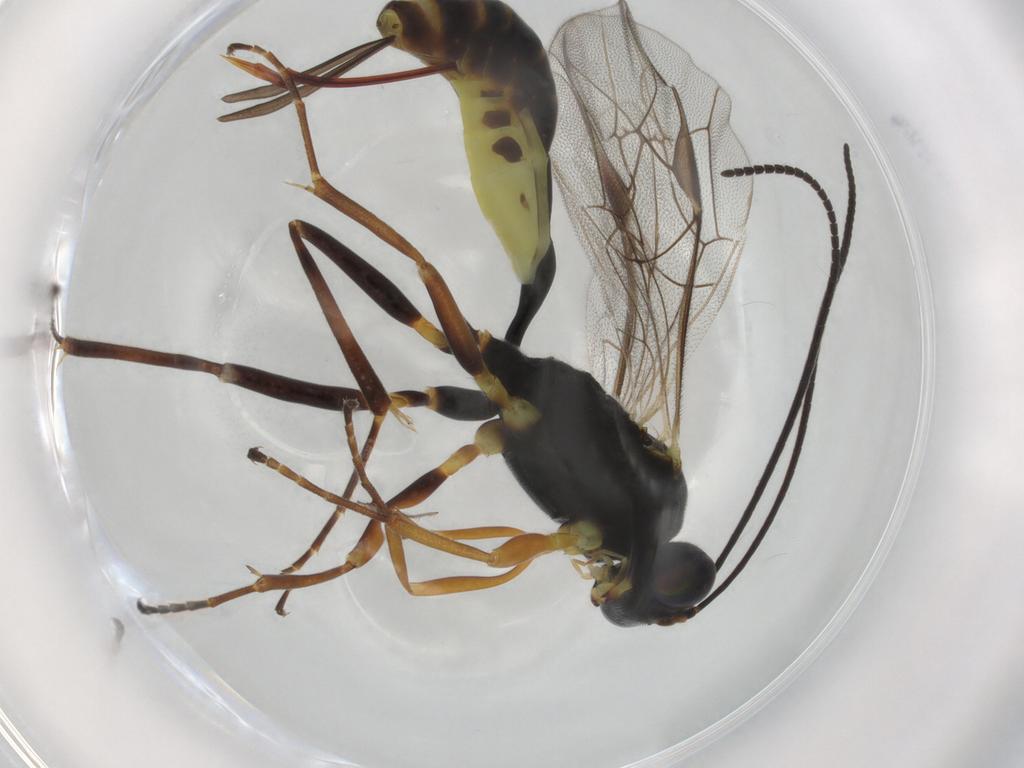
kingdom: Animalia
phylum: Arthropoda
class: Insecta
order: Hymenoptera
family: Ichneumonidae
